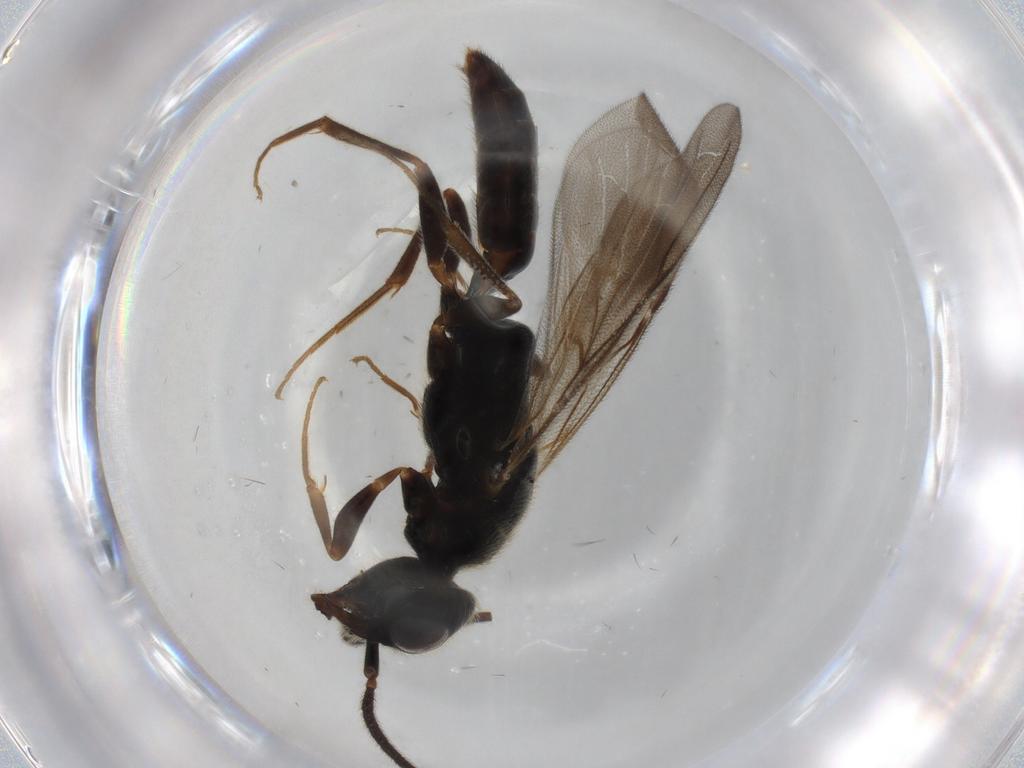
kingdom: Animalia
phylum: Arthropoda
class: Insecta
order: Hymenoptera
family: Bethylidae
